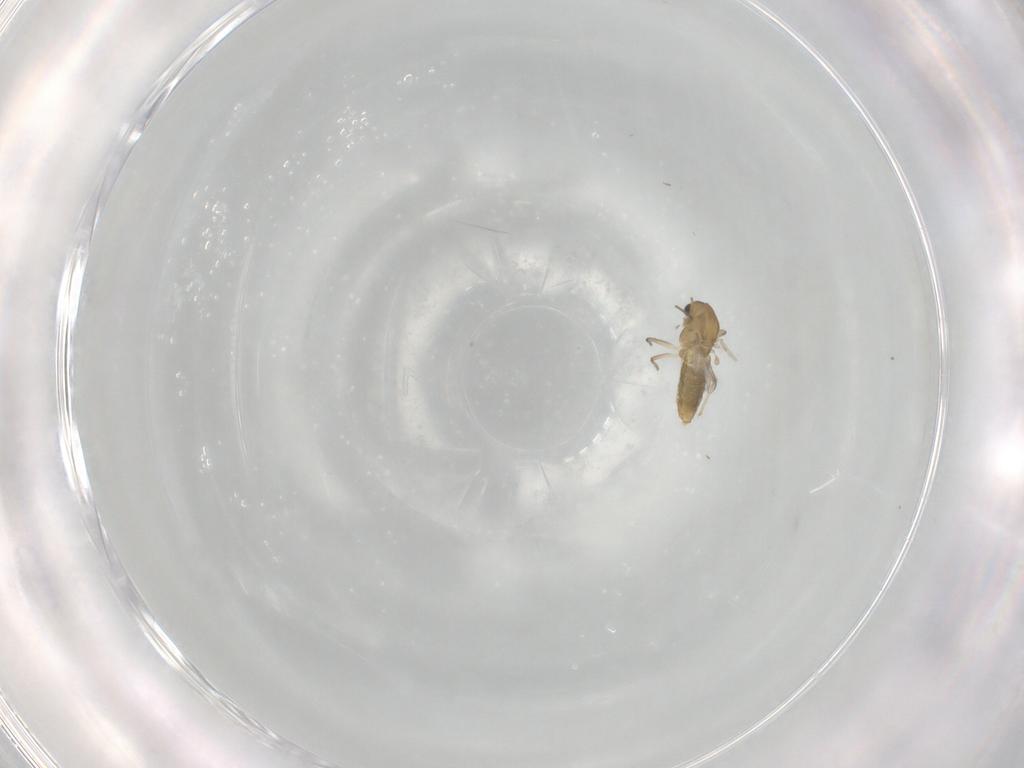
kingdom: Animalia
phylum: Arthropoda
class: Insecta
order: Diptera
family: Chironomidae
